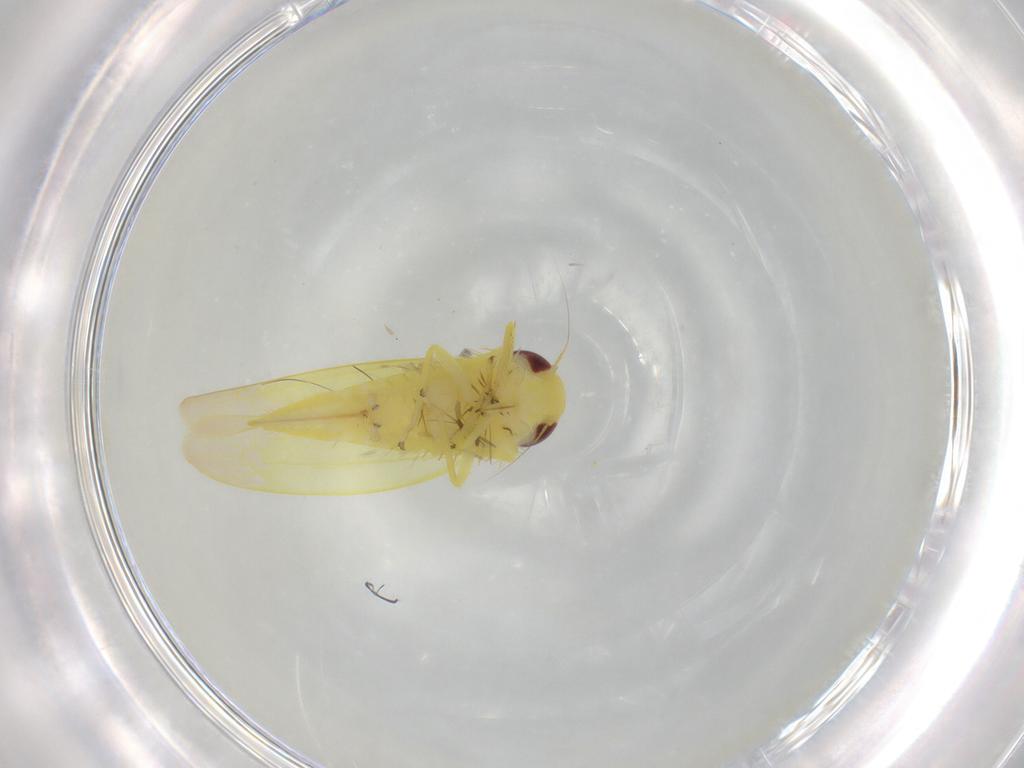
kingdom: Animalia
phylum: Arthropoda
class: Insecta
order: Hemiptera
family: Cicadellidae
